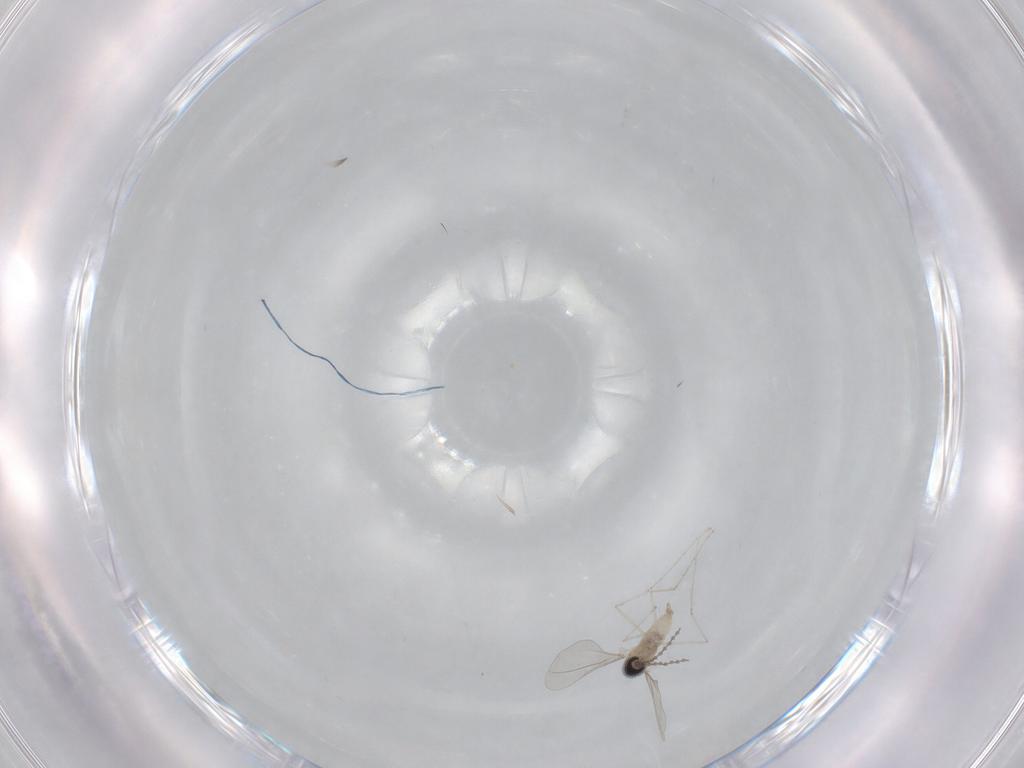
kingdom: Animalia
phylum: Arthropoda
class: Insecta
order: Diptera
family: Cecidomyiidae
